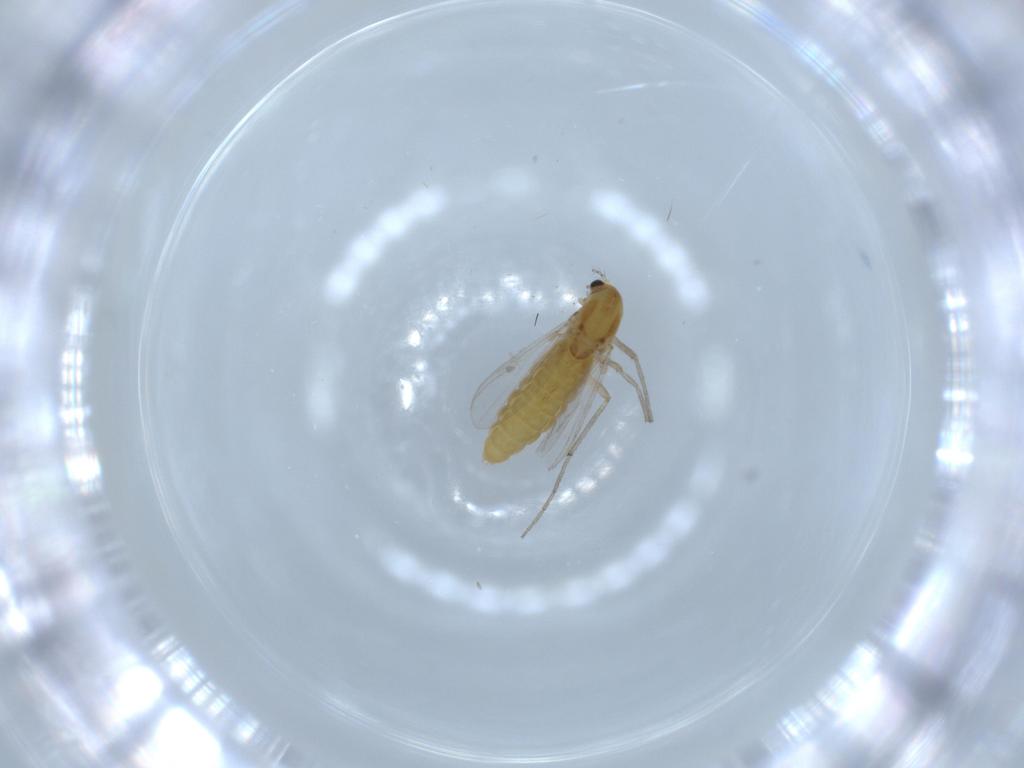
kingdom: Animalia
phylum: Arthropoda
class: Insecta
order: Diptera
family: Chironomidae
